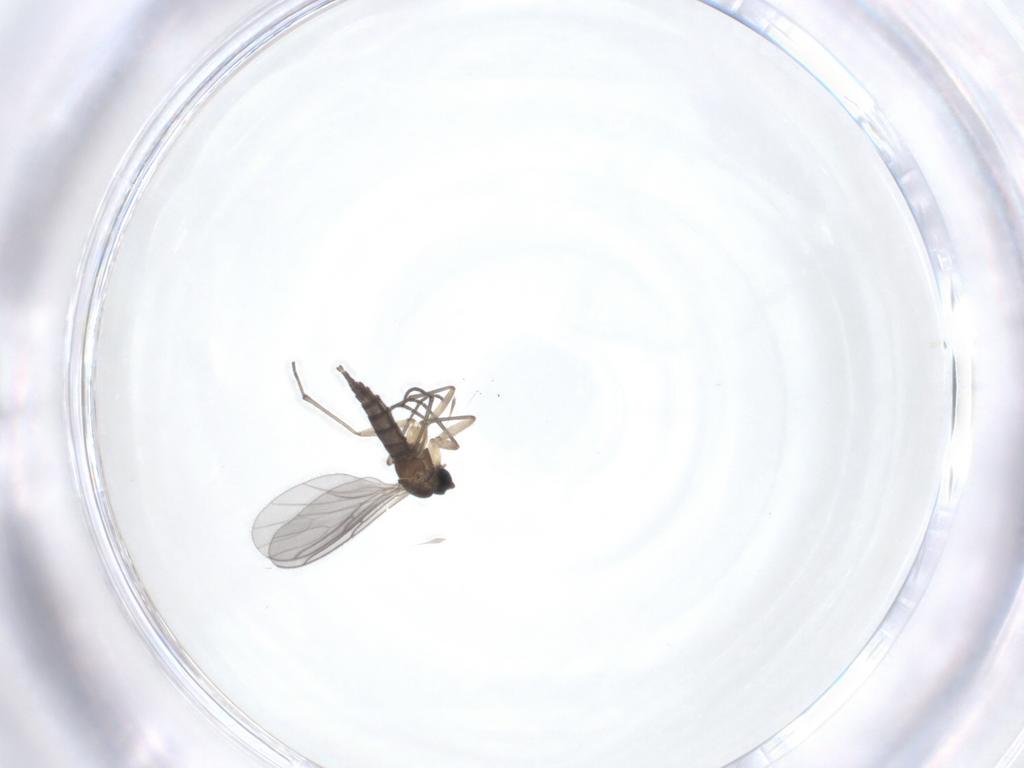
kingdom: Animalia
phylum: Arthropoda
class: Insecta
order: Diptera
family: Sciaridae
